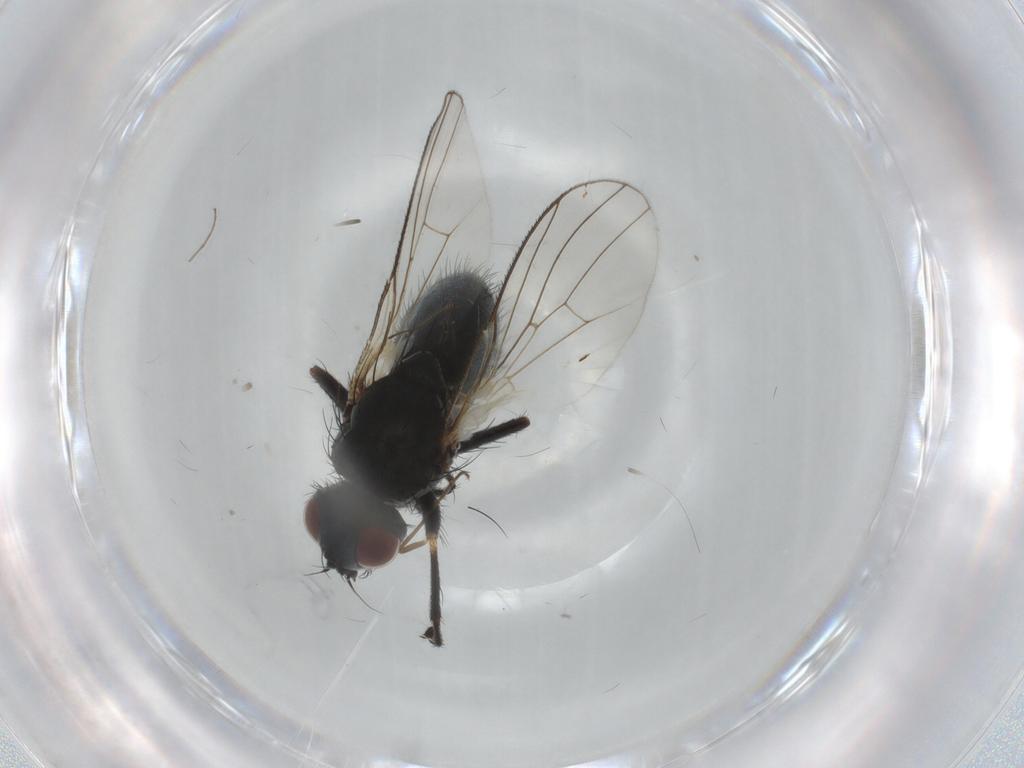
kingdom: Animalia
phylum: Arthropoda
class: Insecta
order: Diptera
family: Muscidae
